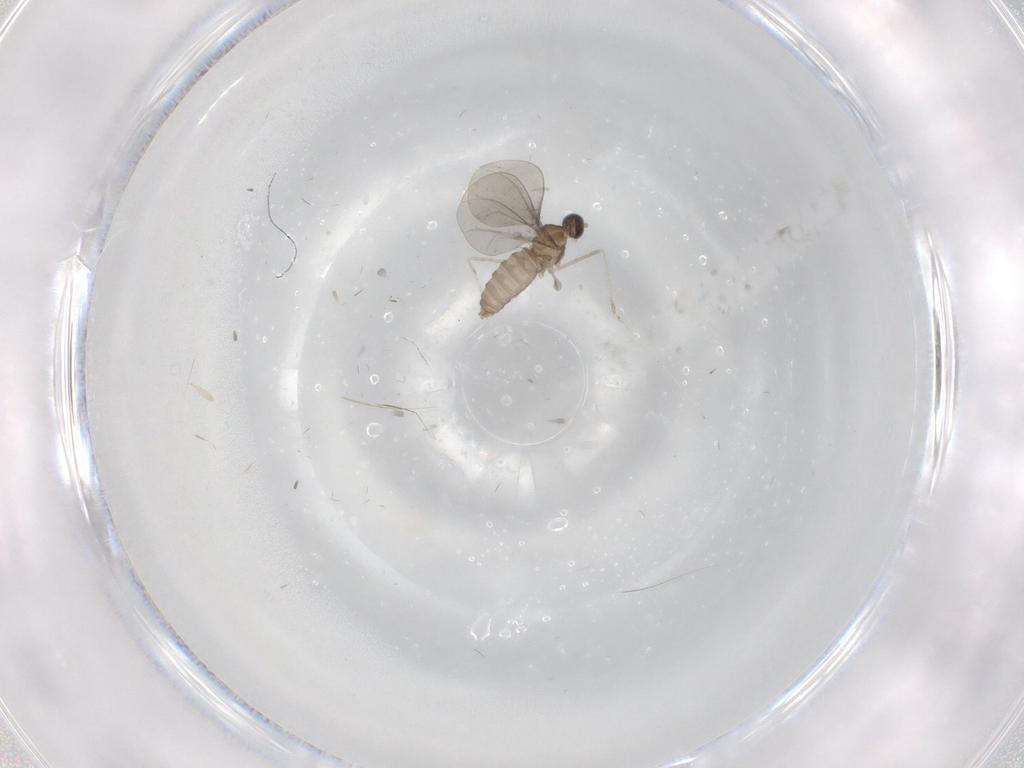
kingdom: Animalia
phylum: Arthropoda
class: Insecta
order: Diptera
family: Cecidomyiidae
